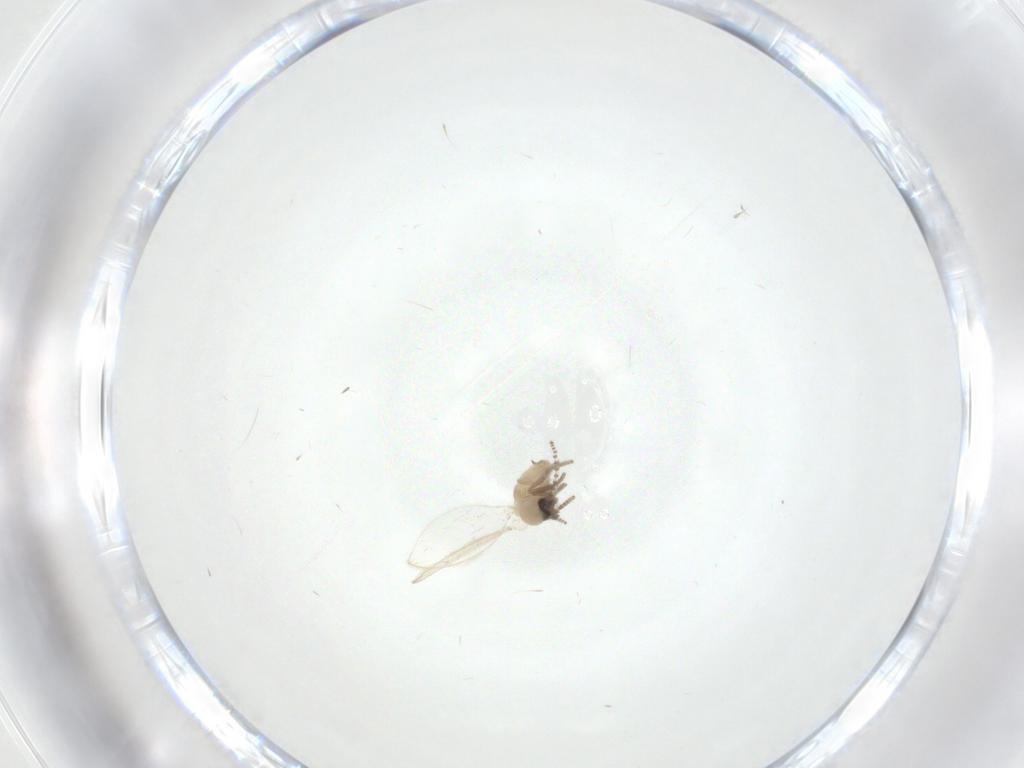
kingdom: Animalia
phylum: Arthropoda
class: Insecta
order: Diptera
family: Psychodidae
